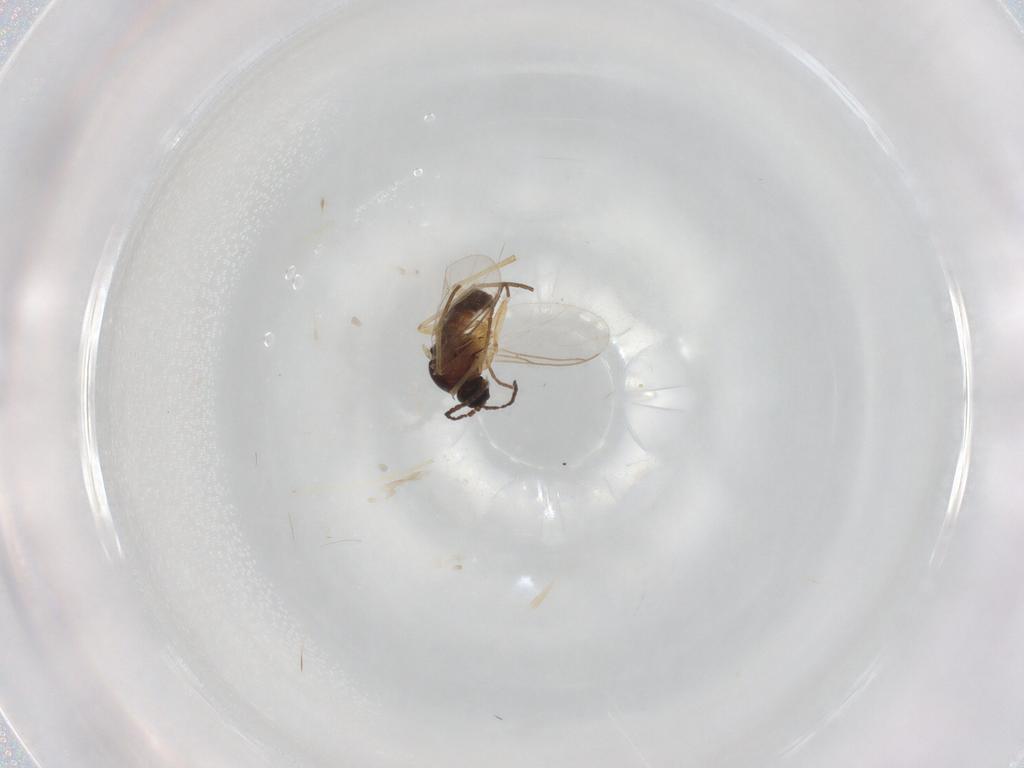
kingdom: Animalia
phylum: Arthropoda
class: Insecta
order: Diptera
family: Sciaridae
